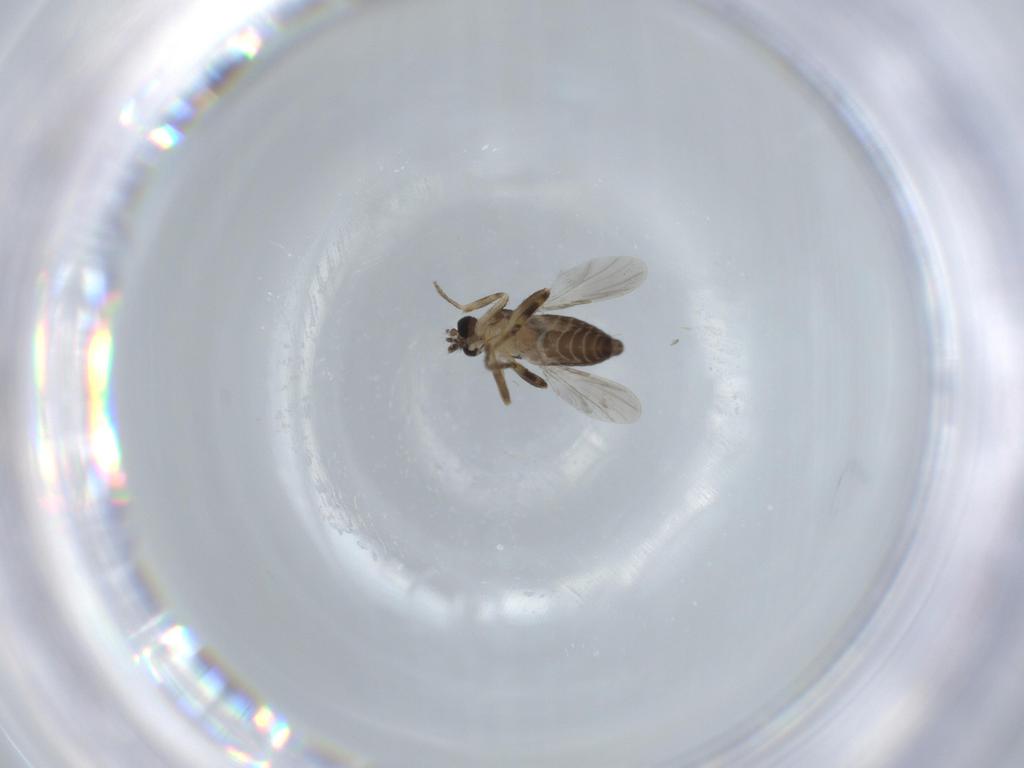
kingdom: Animalia
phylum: Arthropoda
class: Insecta
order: Diptera
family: Ceratopogonidae
